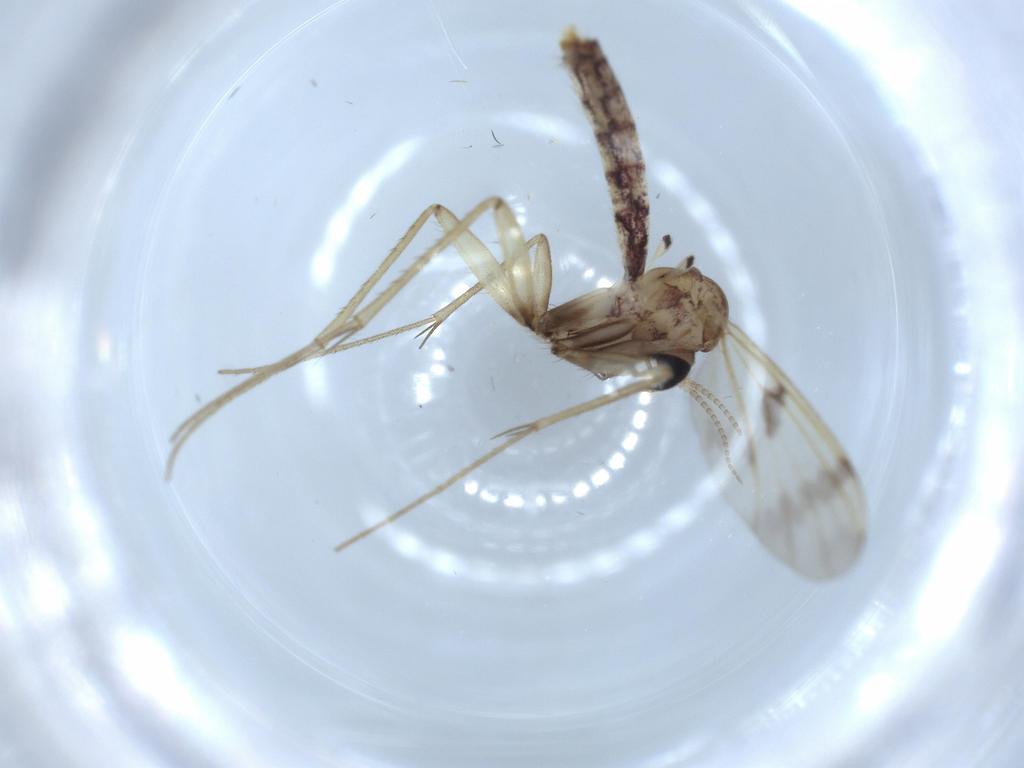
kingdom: Animalia
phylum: Arthropoda
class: Insecta
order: Diptera
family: Mycetophilidae
